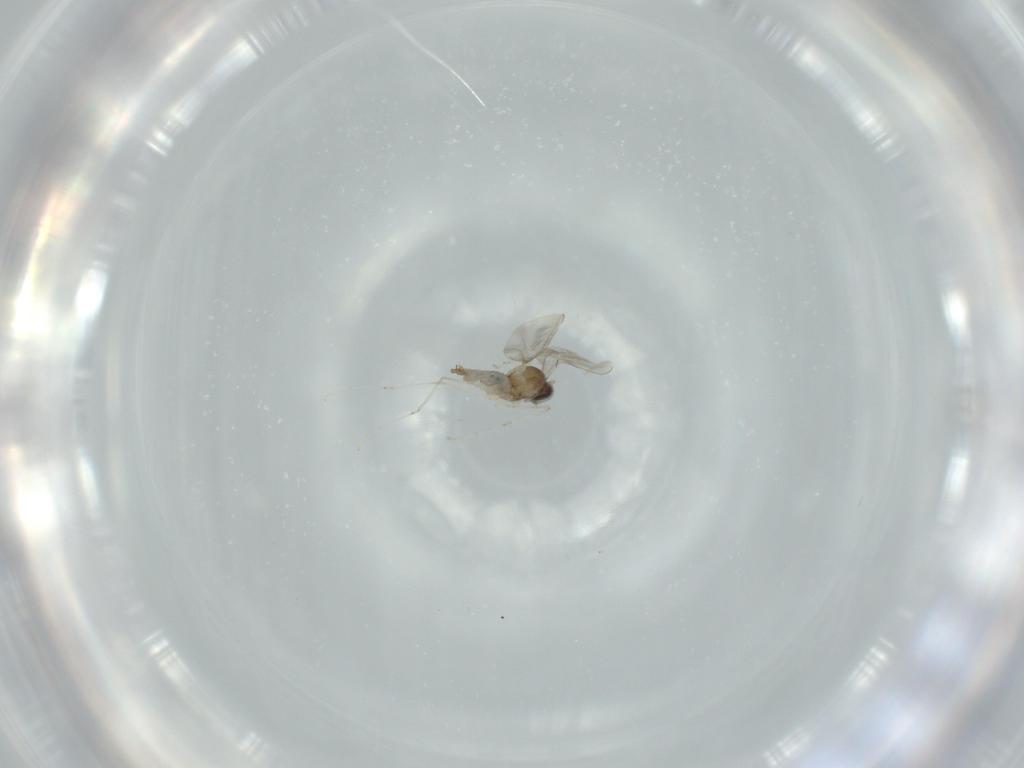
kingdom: Animalia
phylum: Arthropoda
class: Insecta
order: Diptera
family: Cecidomyiidae
